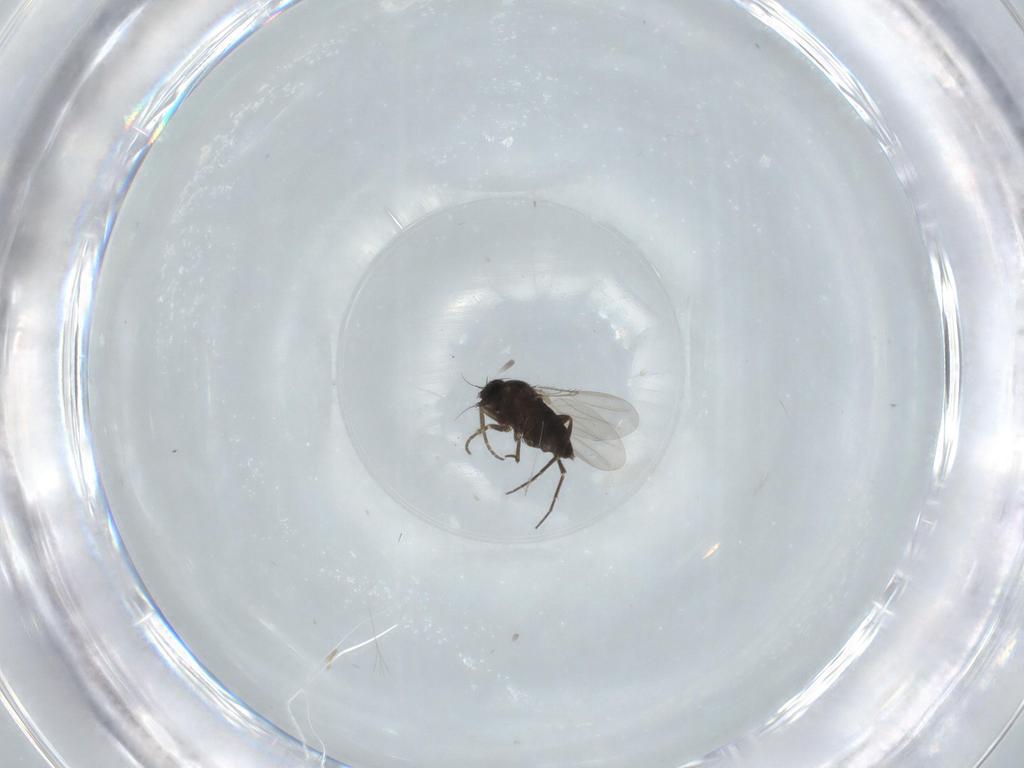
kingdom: Animalia
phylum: Arthropoda
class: Insecta
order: Diptera
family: Phoridae
